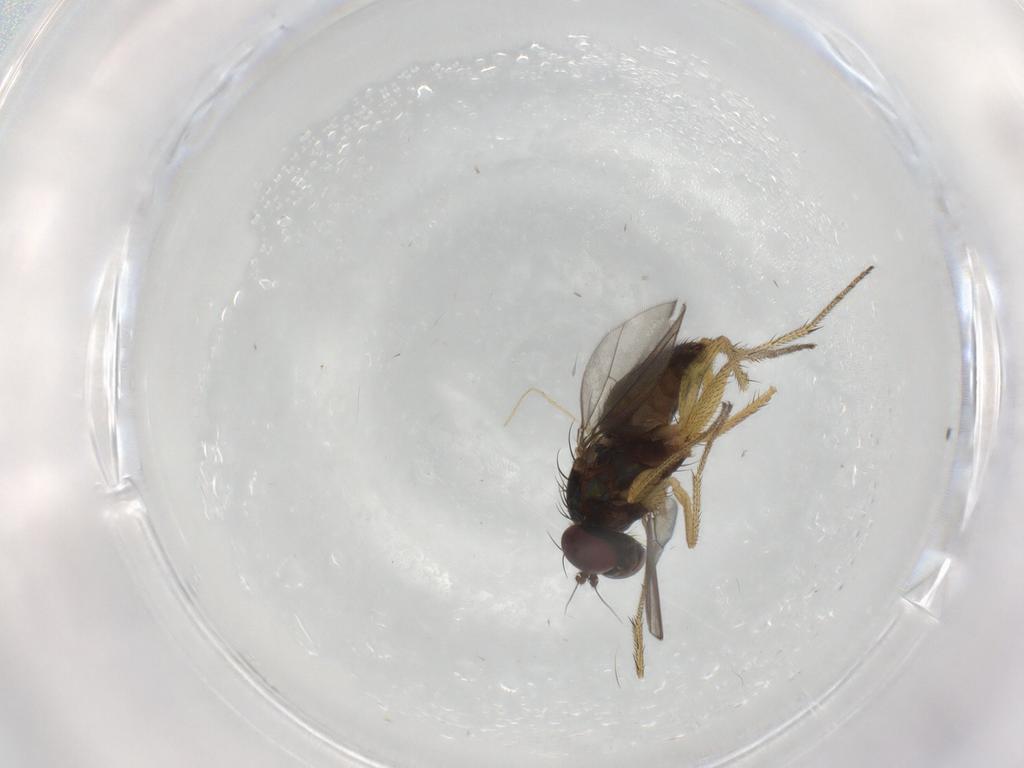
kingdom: Animalia
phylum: Arthropoda
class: Insecta
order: Diptera
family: Dolichopodidae
